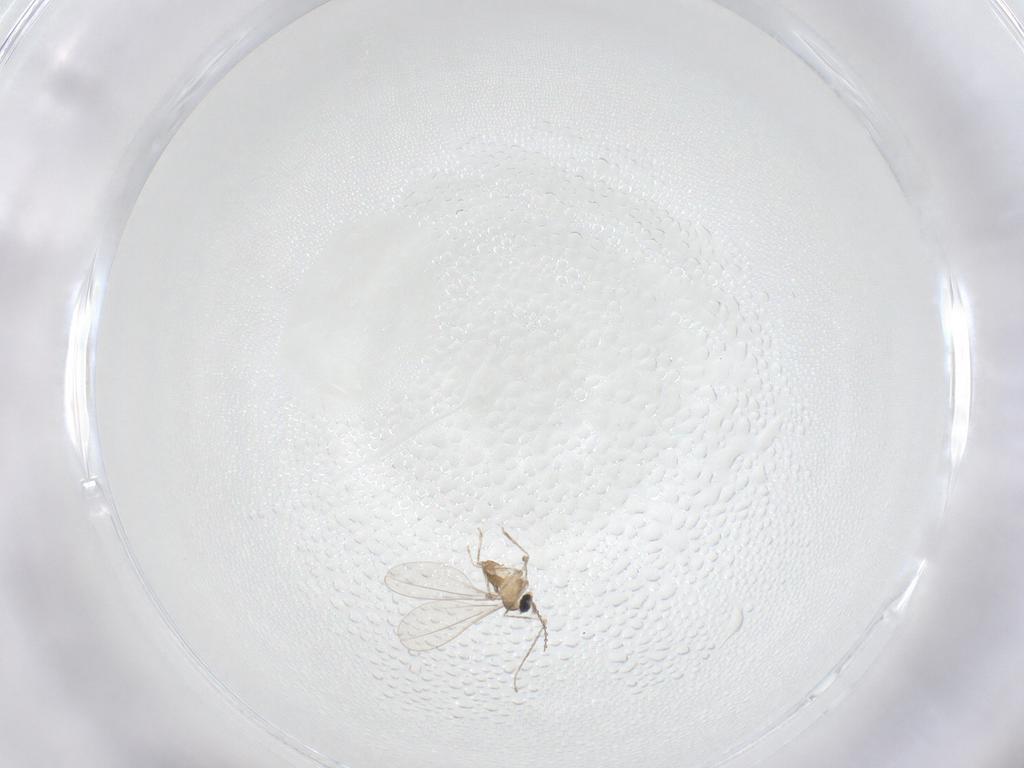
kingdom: Animalia
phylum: Arthropoda
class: Insecta
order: Diptera
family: Cecidomyiidae
